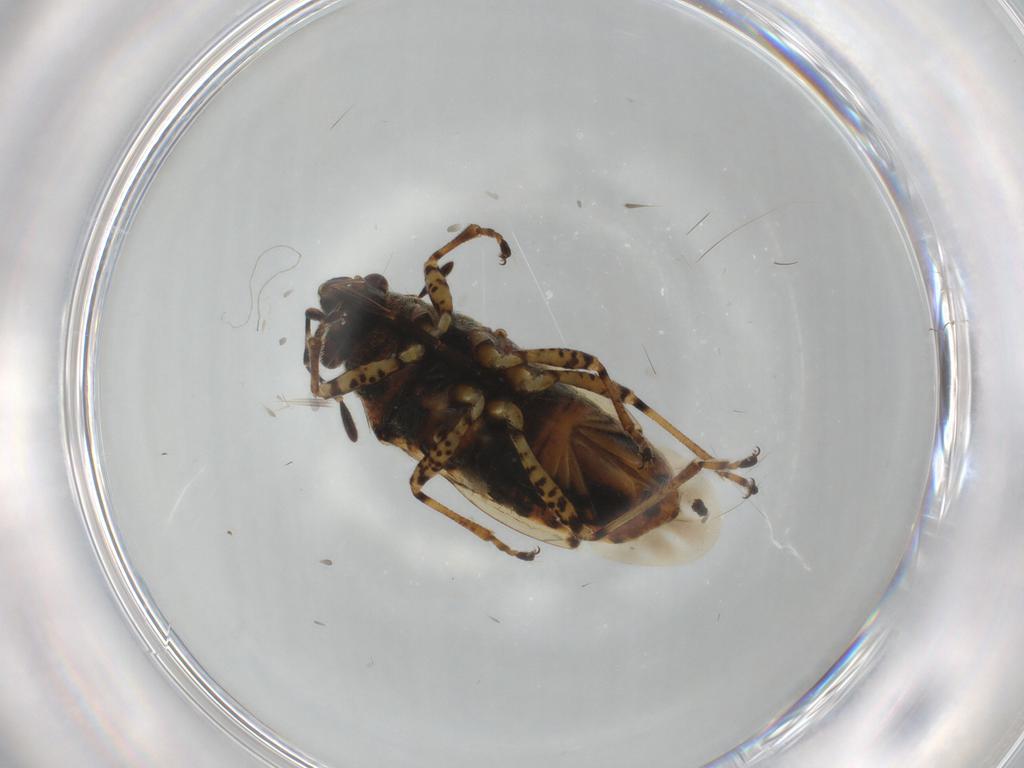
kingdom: Animalia
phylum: Arthropoda
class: Insecta
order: Hemiptera
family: Lygaeidae
